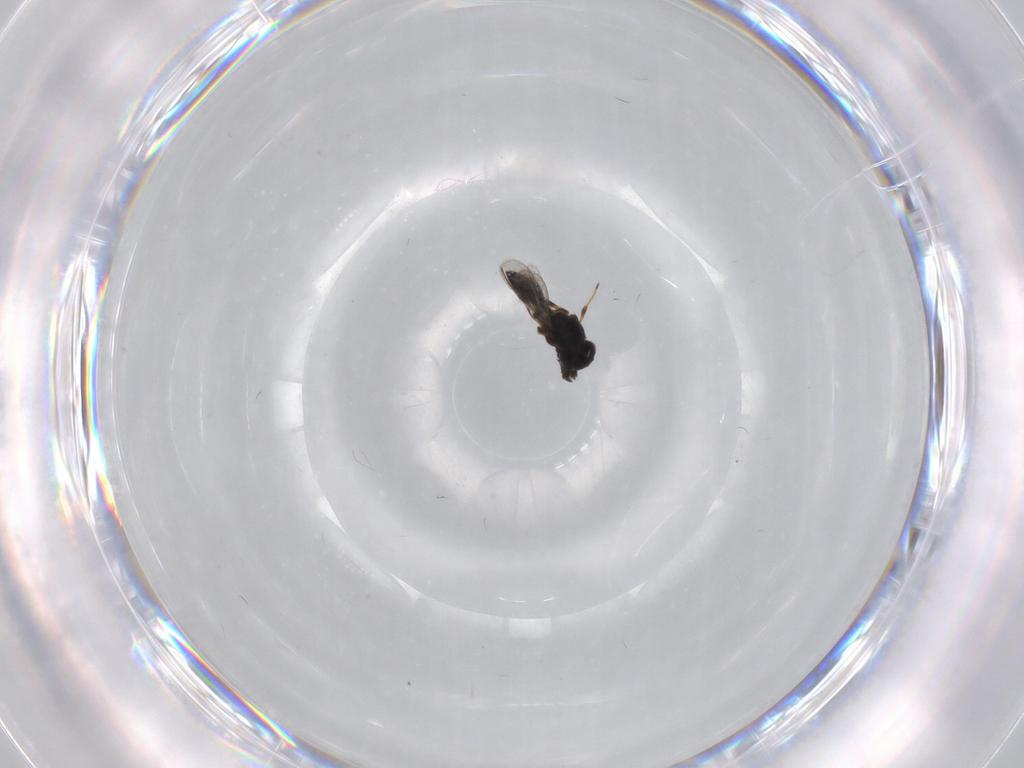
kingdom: Animalia
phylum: Arthropoda
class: Insecta
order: Hymenoptera
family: Platygastridae
